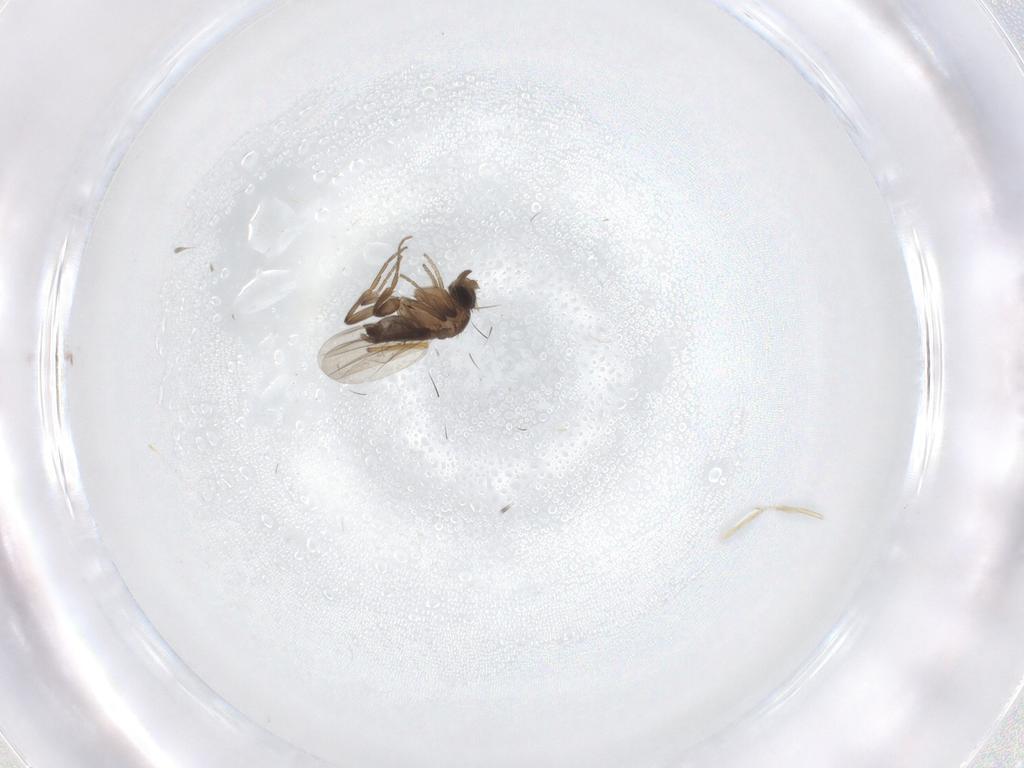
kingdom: Animalia
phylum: Arthropoda
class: Insecta
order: Diptera
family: Phoridae
